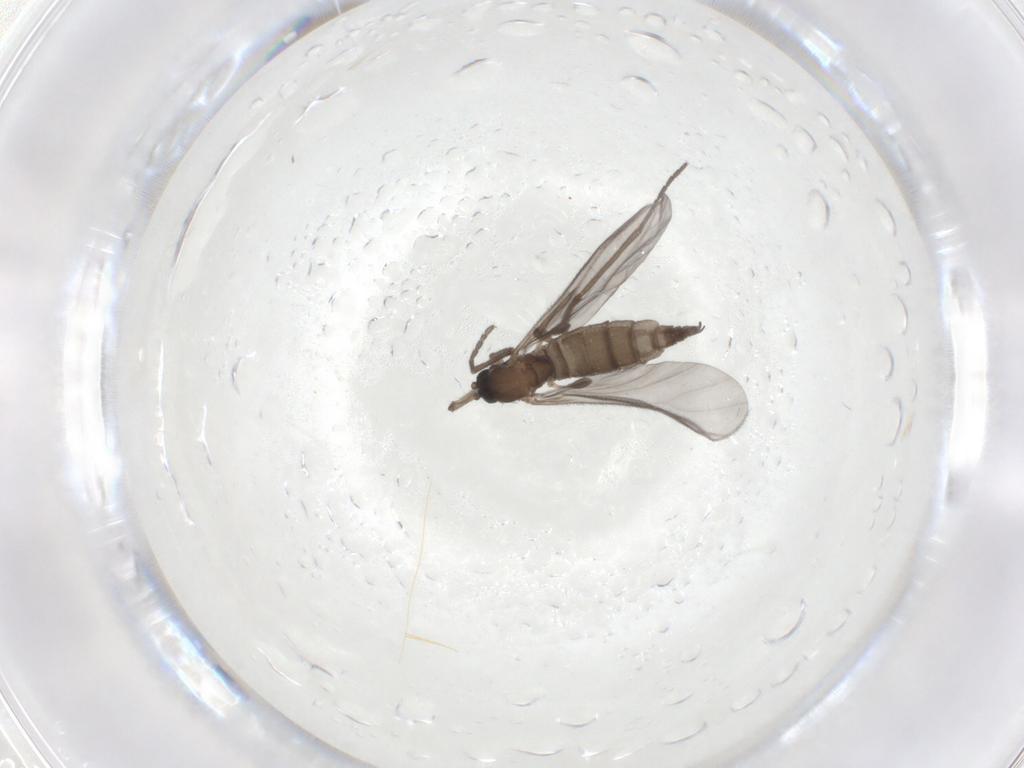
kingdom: Animalia
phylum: Arthropoda
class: Insecta
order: Diptera
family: Sciaridae
